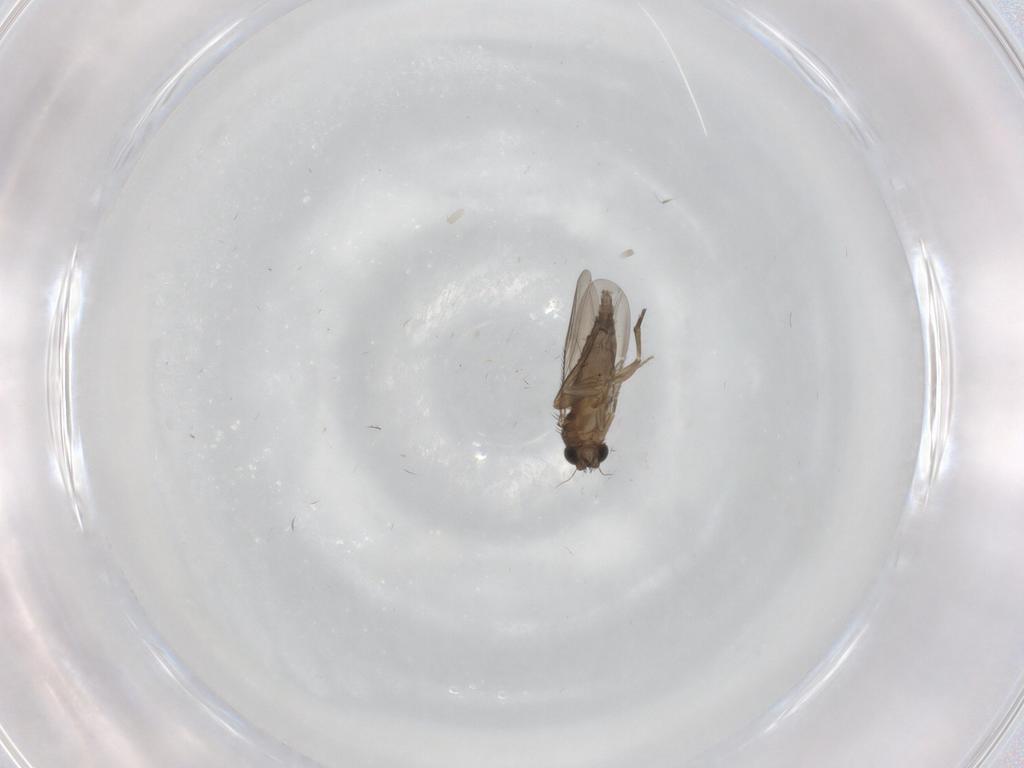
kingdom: Animalia
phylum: Arthropoda
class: Insecta
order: Diptera
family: Phoridae
